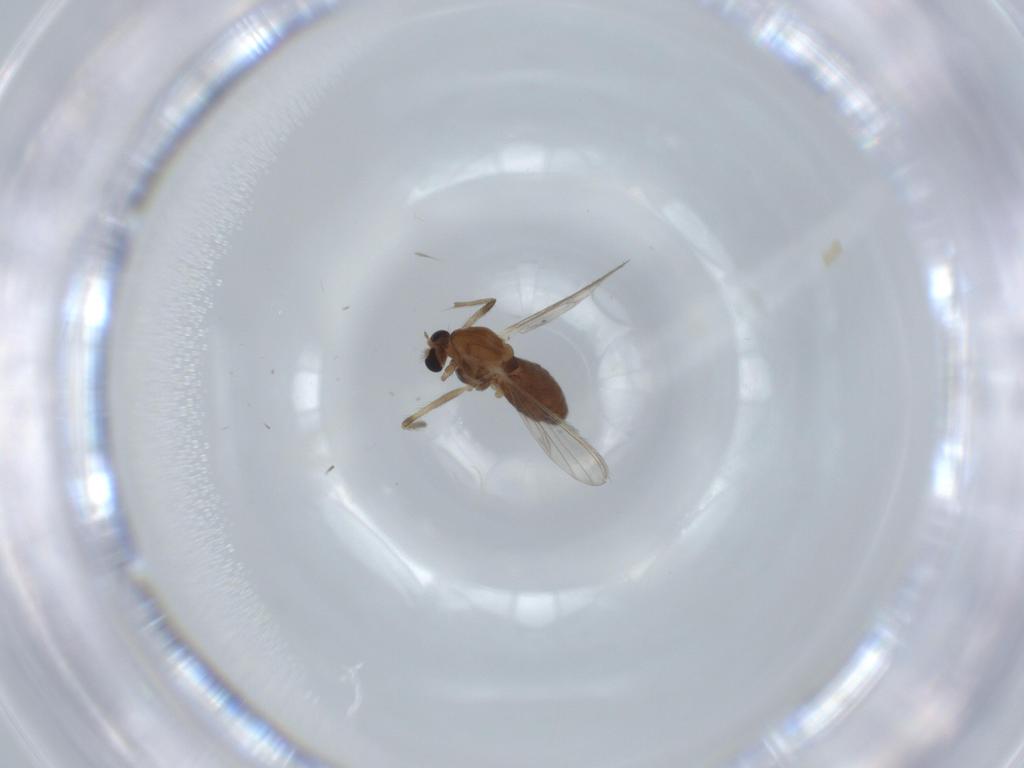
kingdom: Animalia
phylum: Arthropoda
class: Insecta
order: Diptera
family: Chironomidae
